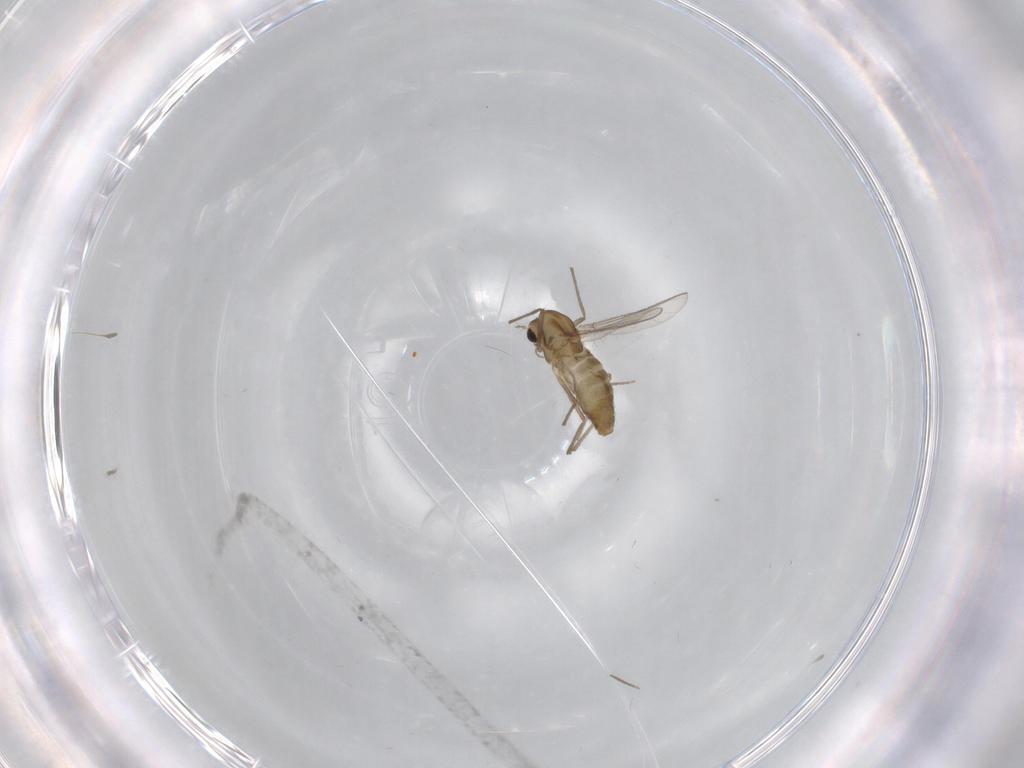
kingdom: Animalia
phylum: Arthropoda
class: Insecta
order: Diptera
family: Chironomidae
